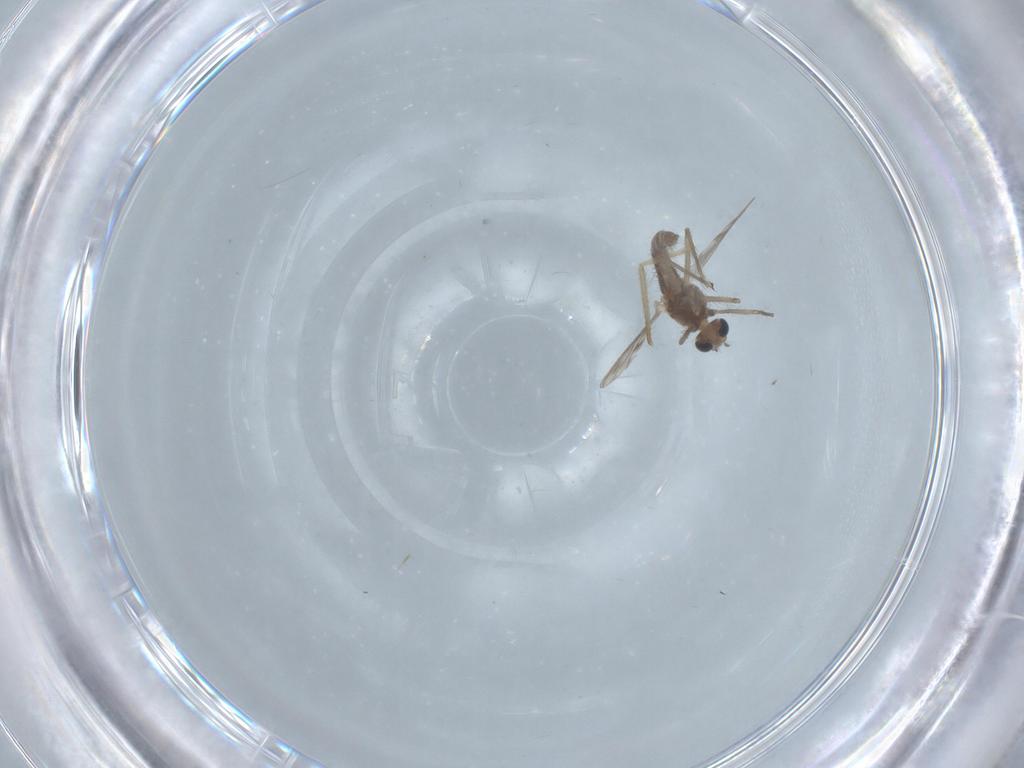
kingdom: Animalia
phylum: Arthropoda
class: Insecta
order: Diptera
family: Chironomidae
